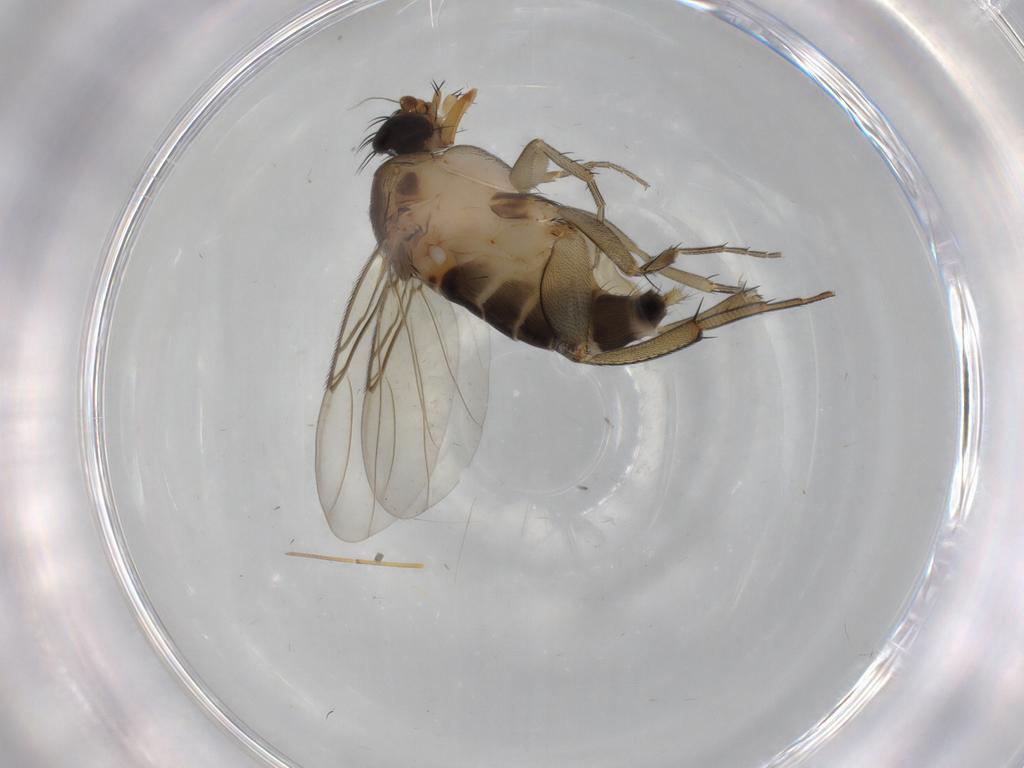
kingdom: Animalia
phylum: Arthropoda
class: Insecta
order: Diptera
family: Phoridae
